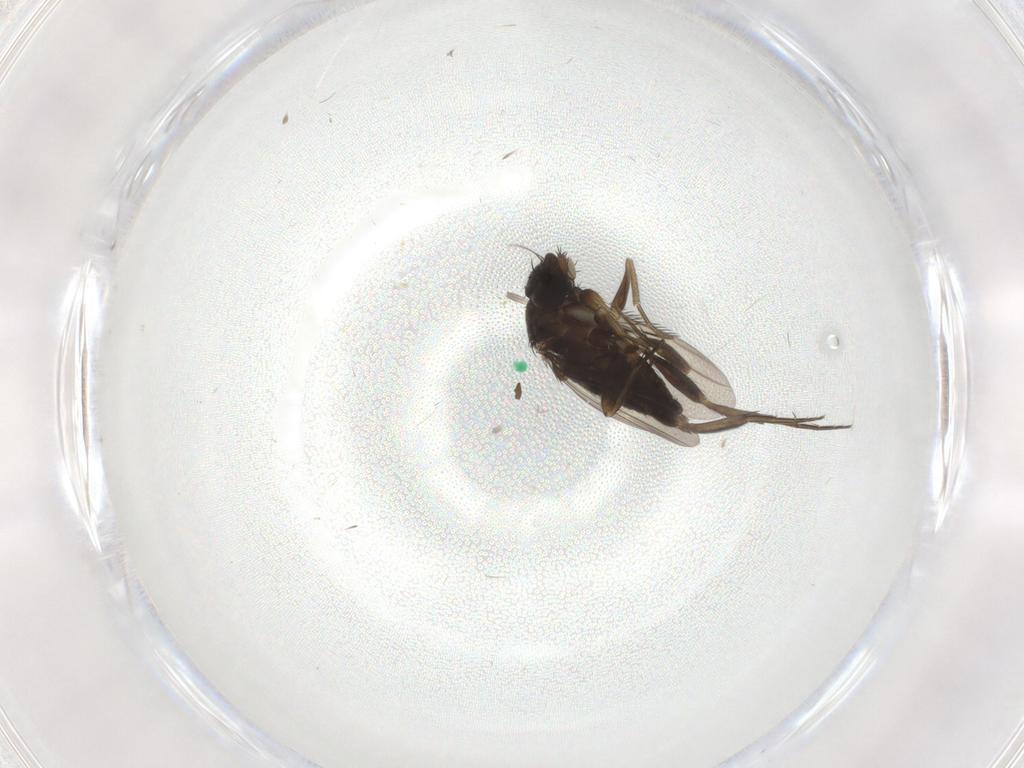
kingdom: Animalia
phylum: Arthropoda
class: Insecta
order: Diptera
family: Phoridae
